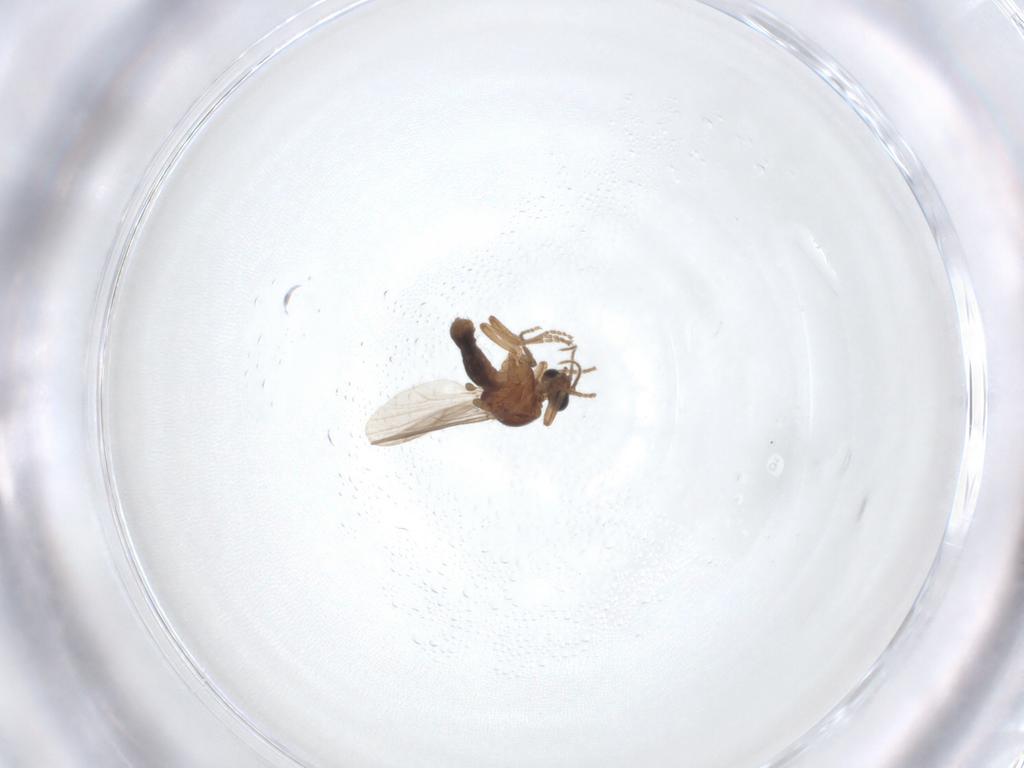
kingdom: Animalia
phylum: Arthropoda
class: Insecta
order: Diptera
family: Ceratopogonidae
